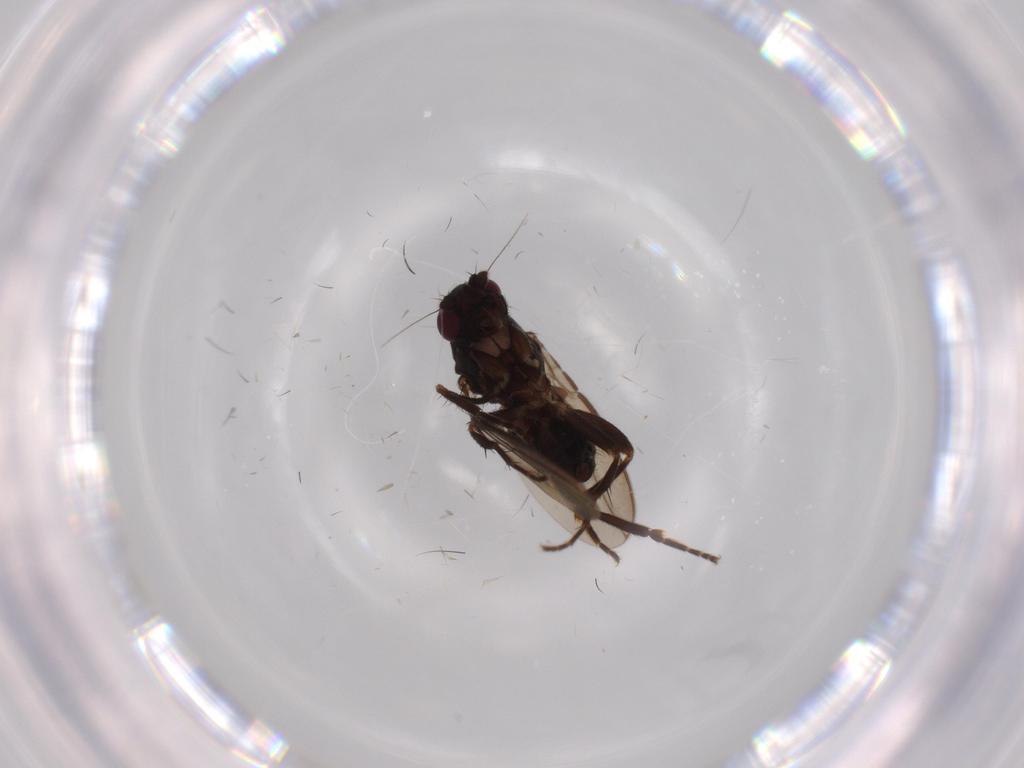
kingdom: Animalia
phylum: Arthropoda
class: Insecta
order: Diptera
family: Sphaeroceridae
